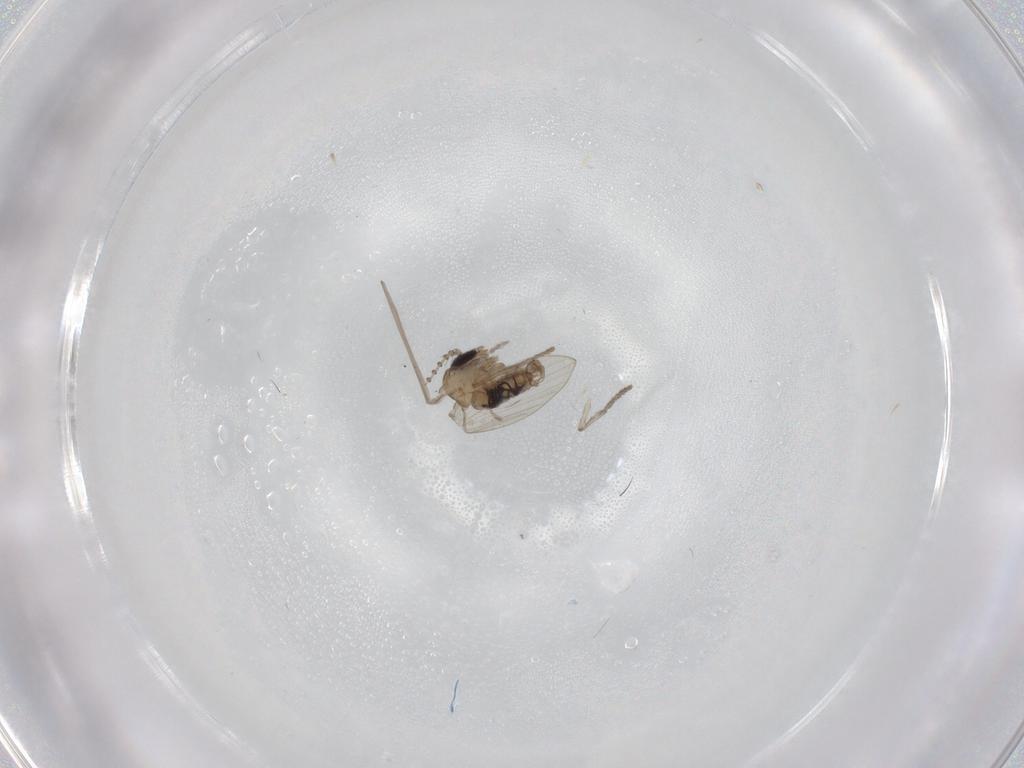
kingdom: Animalia
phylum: Arthropoda
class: Insecta
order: Diptera
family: Psychodidae
